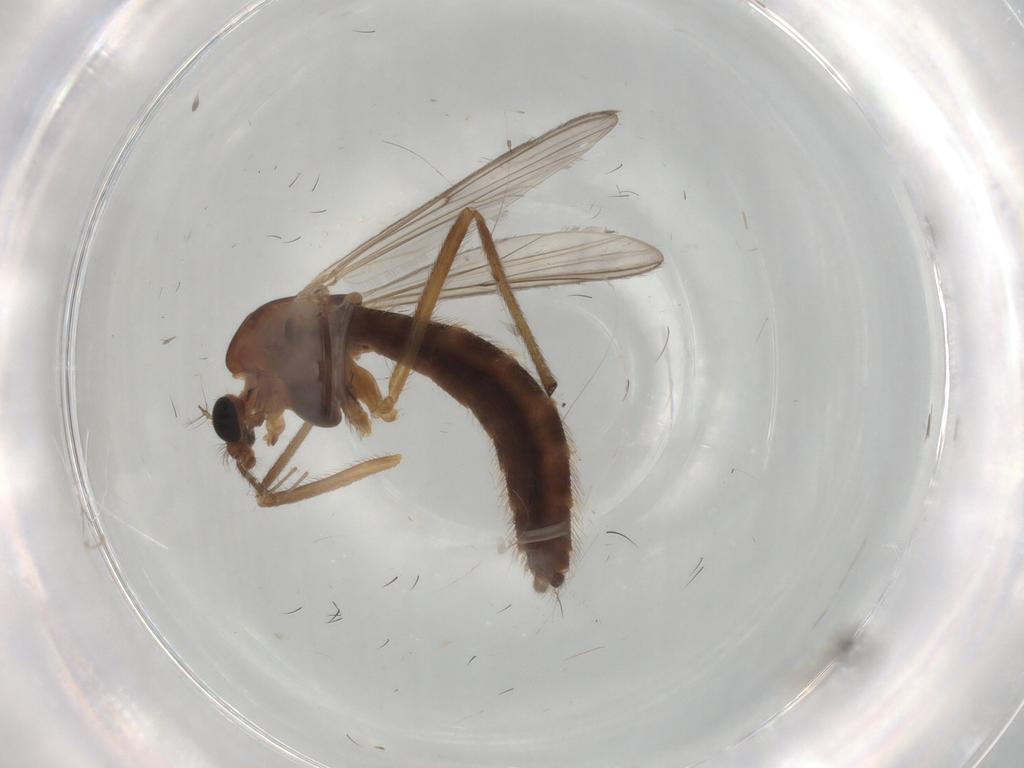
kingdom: Animalia
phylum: Arthropoda
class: Insecta
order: Diptera
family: Chironomidae
